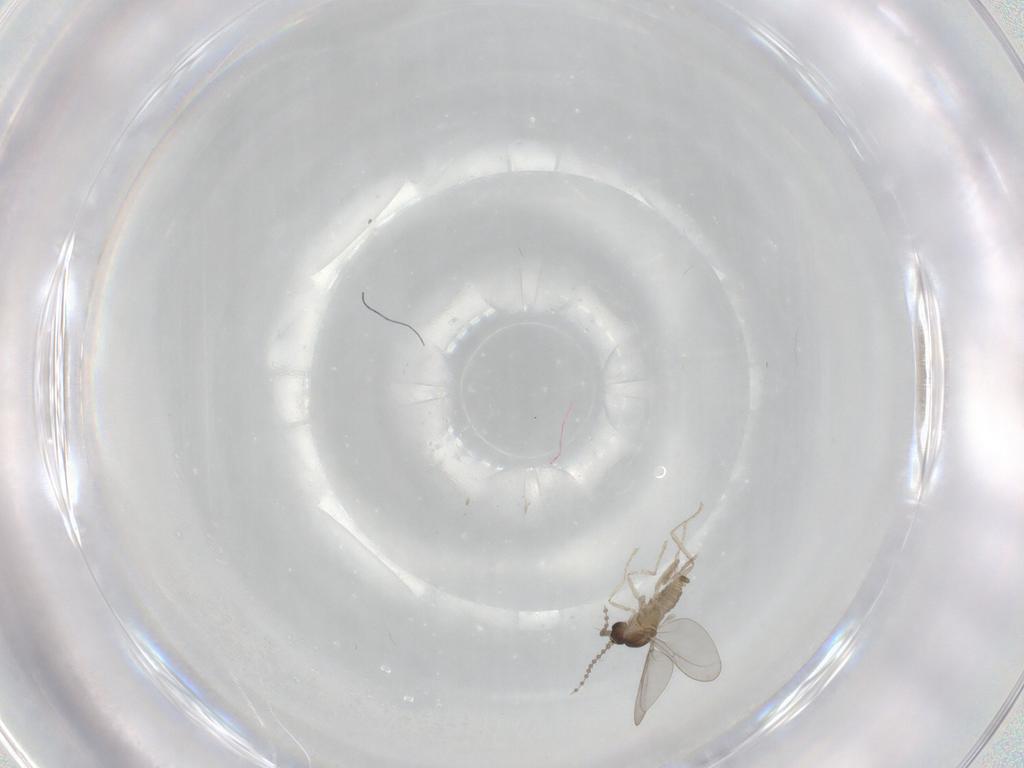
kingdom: Animalia
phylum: Arthropoda
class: Insecta
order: Diptera
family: Cecidomyiidae
